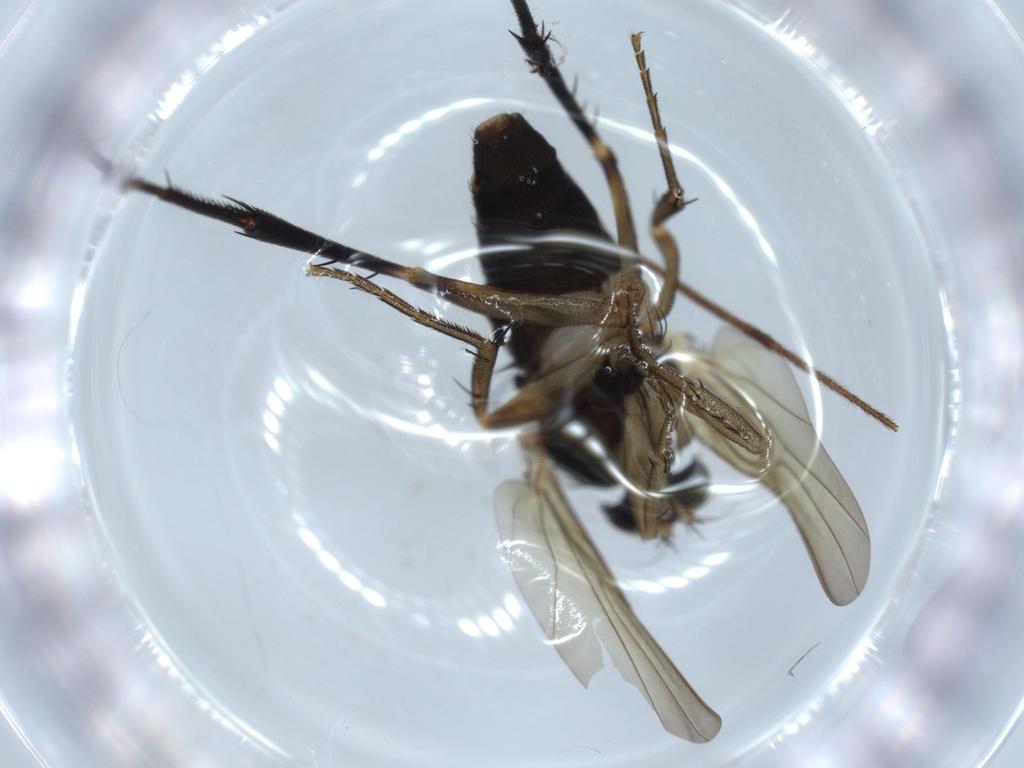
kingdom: Animalia
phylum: Arthropoda
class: Insecta
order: Diptera
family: Phoridae
